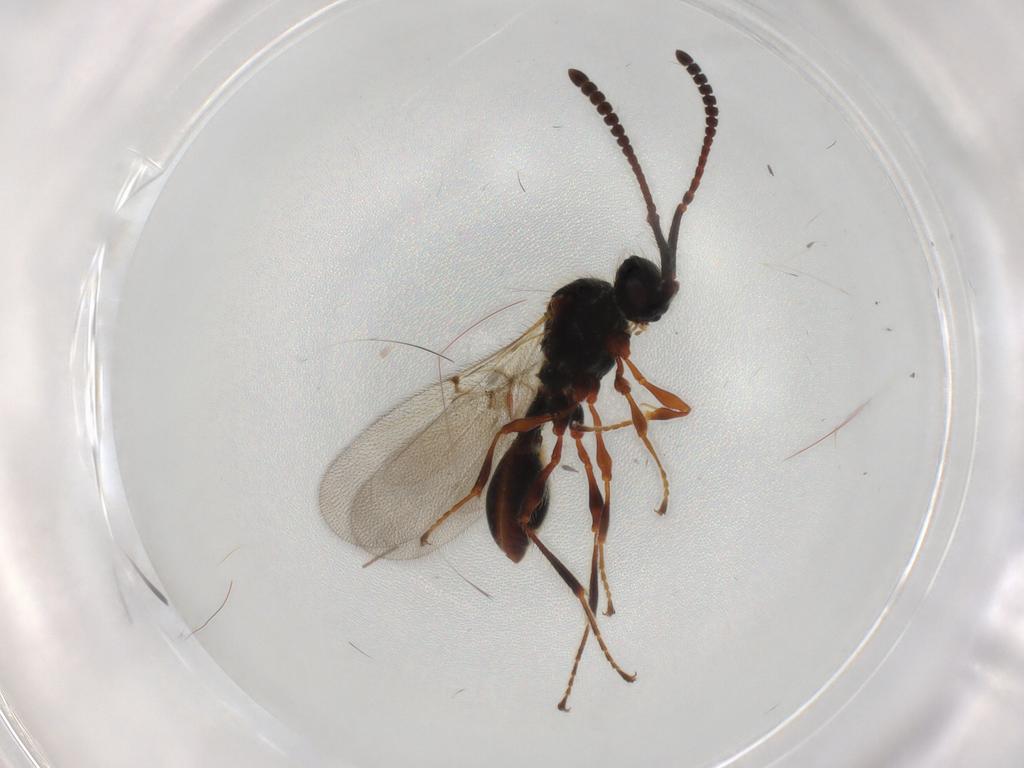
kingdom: Animalia
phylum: Arthropoda
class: Insecta
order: Hymenoptera
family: Diapriidae
